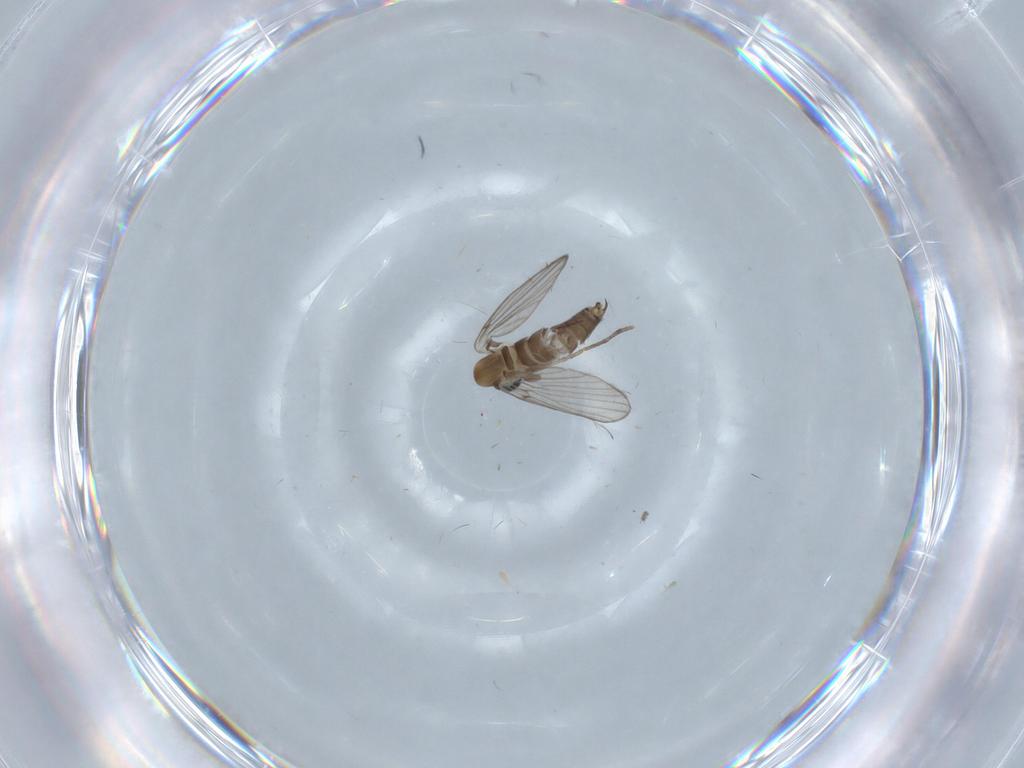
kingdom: Animalia
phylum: Arthropoda
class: Insecta
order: Diptera
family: Psychodidae
